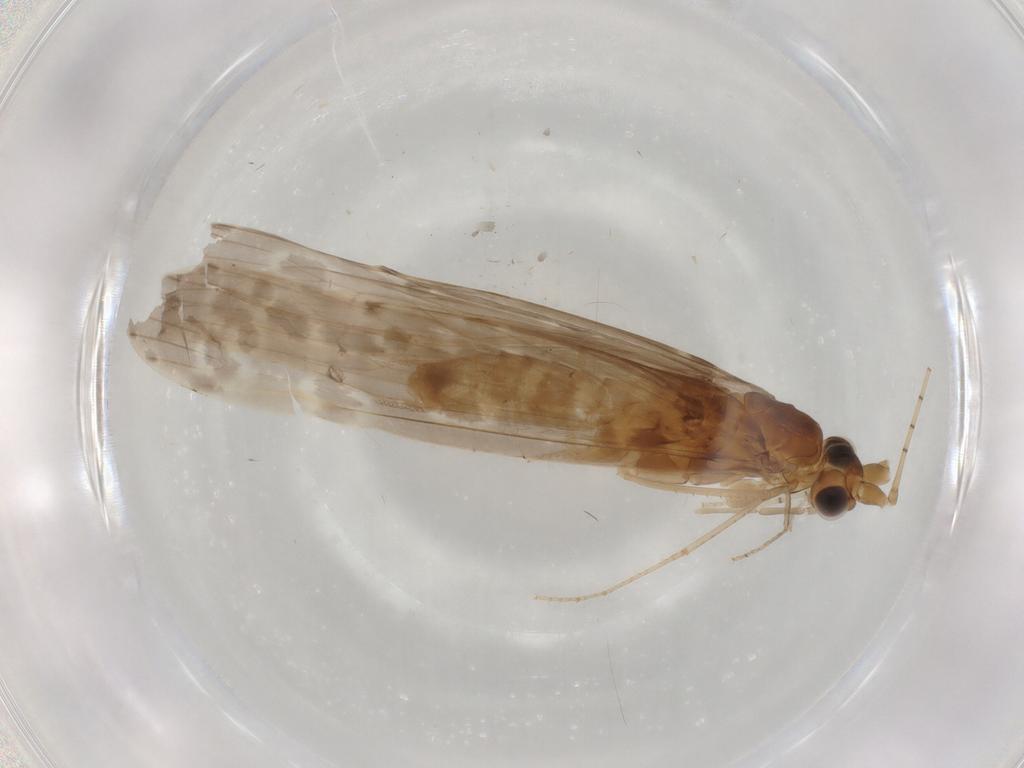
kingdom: Animalia
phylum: Arthropoda
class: Insecta
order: Trichoptera
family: Leptoceridae
